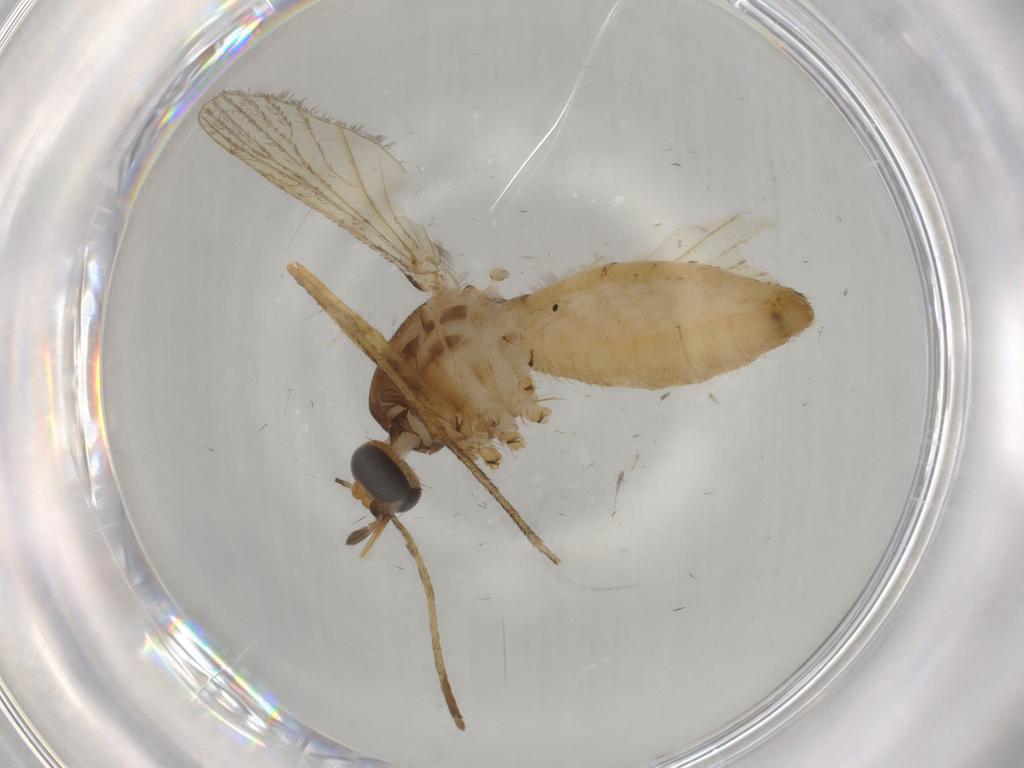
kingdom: Animalia
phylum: Arthropoda
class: Insecta
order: Diptera
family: Culicidae
